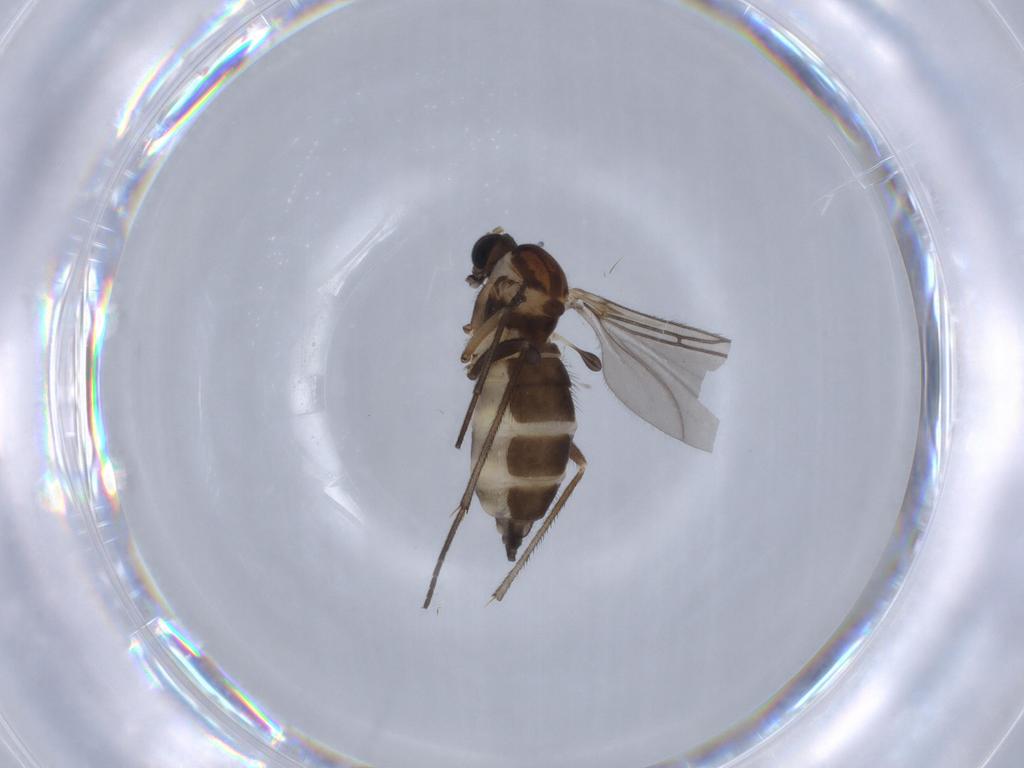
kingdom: Animalia
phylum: Arthropoda
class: Insecta
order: Diptera
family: Sciaridae
